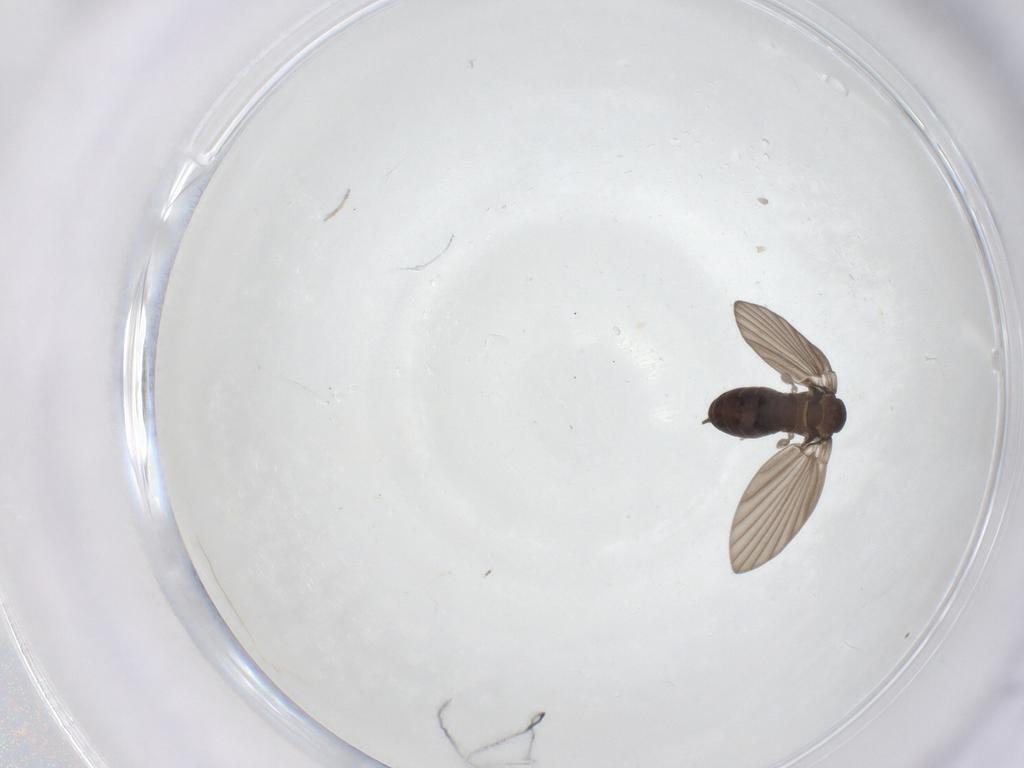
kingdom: Animalia
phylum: Arthropoda
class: Insecta
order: Diptera
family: Psychodidae
